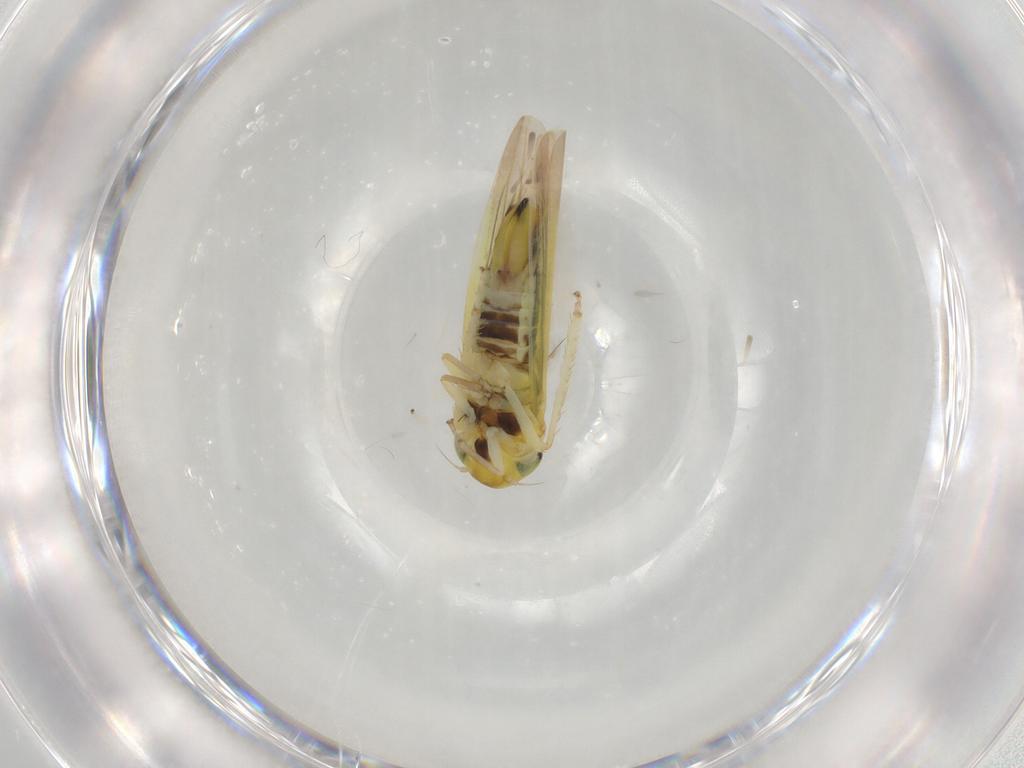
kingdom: Animalia
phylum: Arthropoda
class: Insecta
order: Hemiptera
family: Cicadellidae
